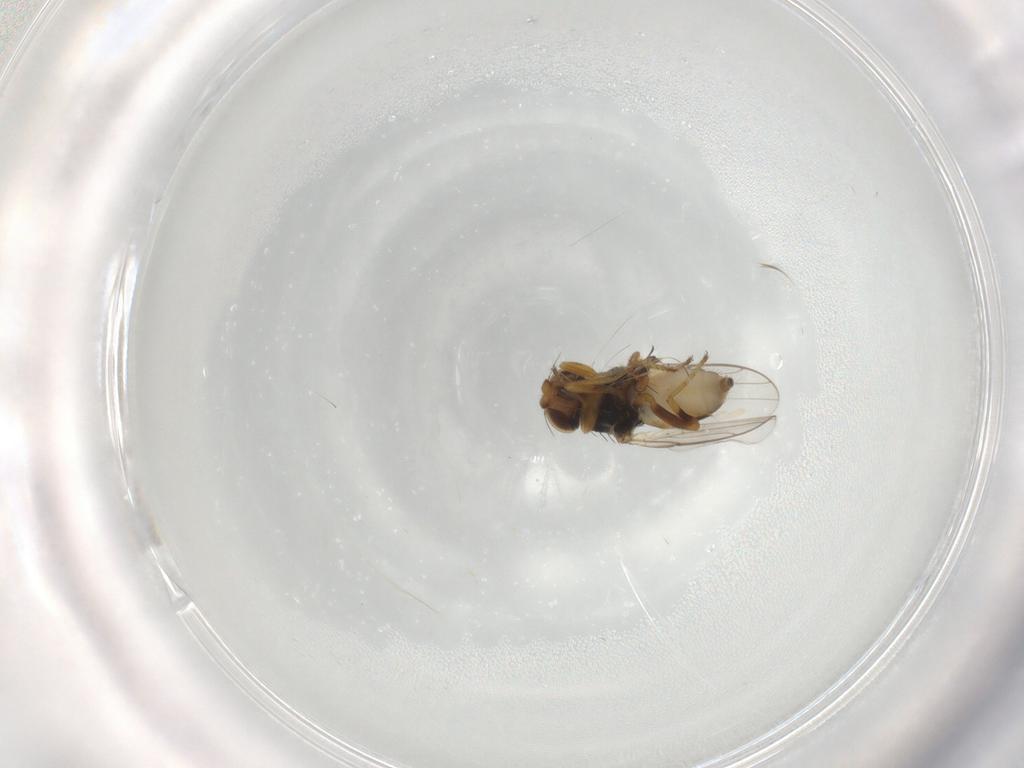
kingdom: Animalia
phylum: Arthropoda
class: Insecta
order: Diptera
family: Chloropidae
